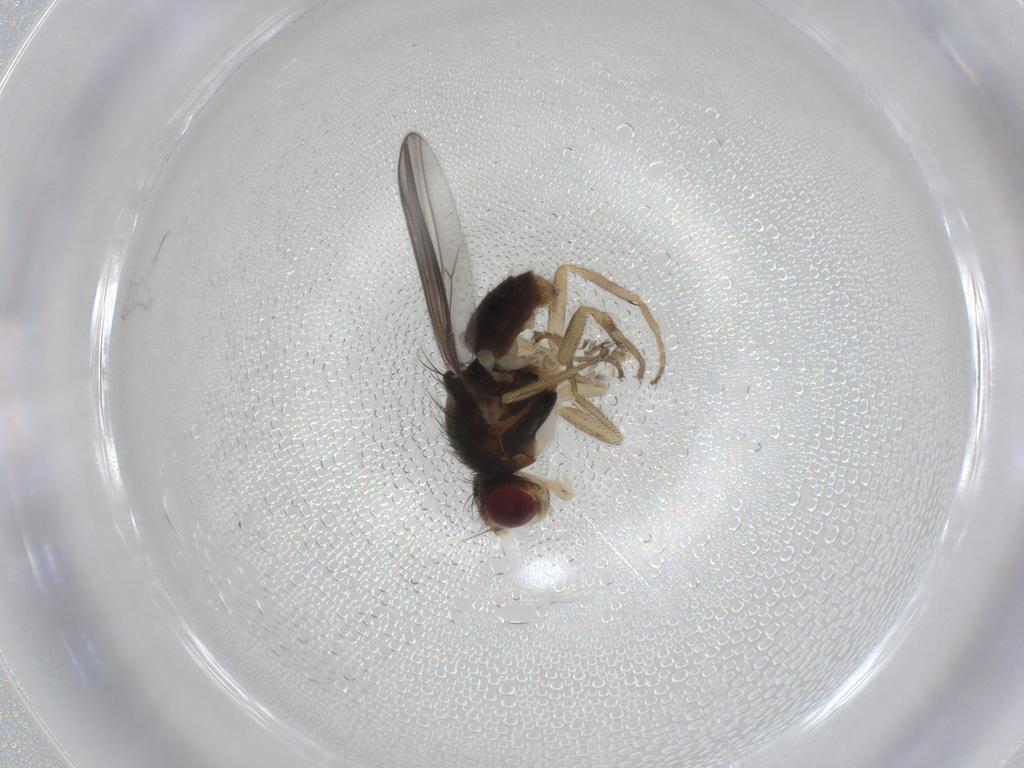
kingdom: Animalia
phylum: Arthropoda
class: Insecta
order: Diptera
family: Chloropidae
